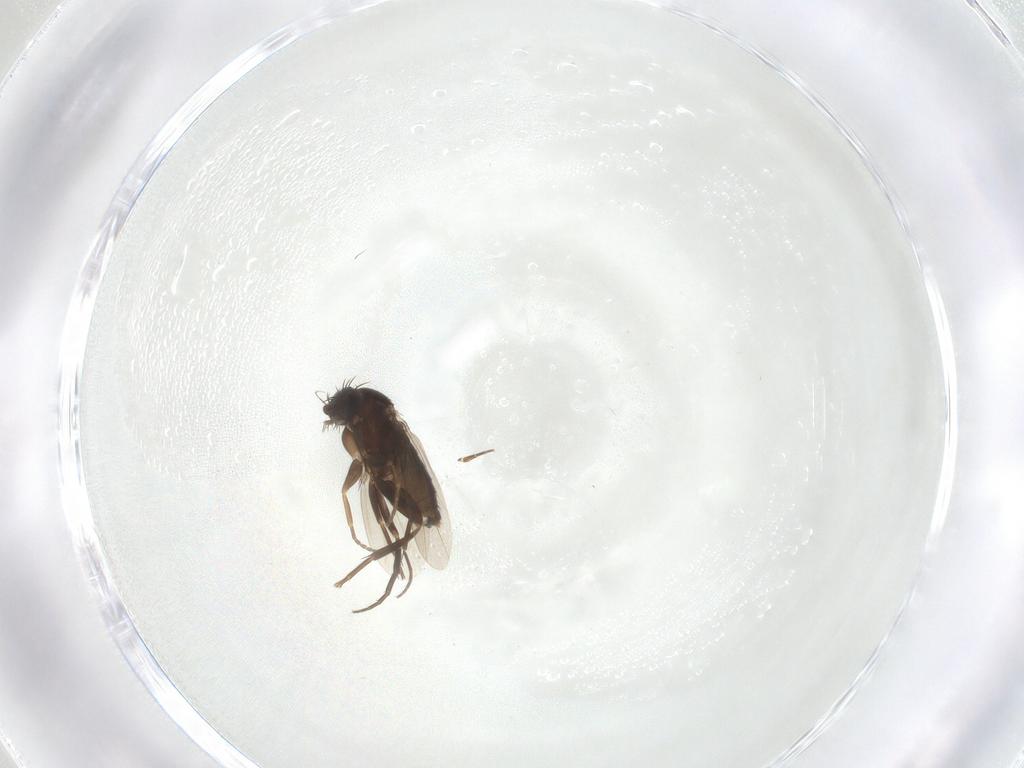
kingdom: Animalia
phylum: Arthropoda
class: Insecta
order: Diptera
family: Phoridae
